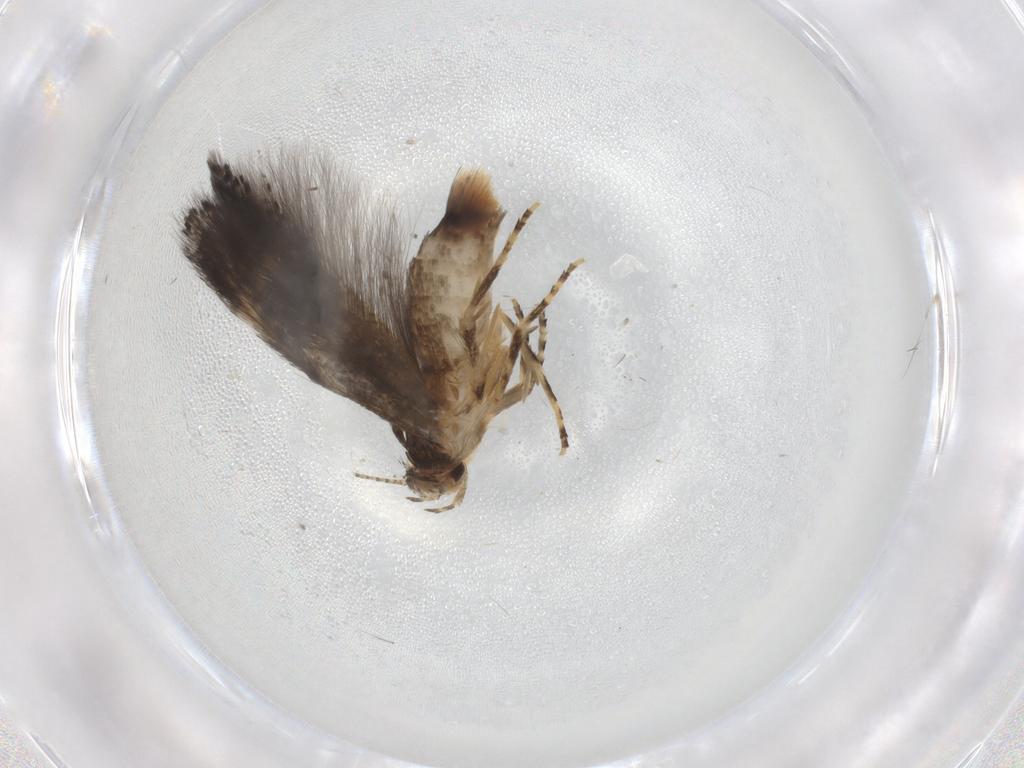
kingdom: Animalia
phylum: Arthropoda
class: Insecta
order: Lepidoptera
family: Elachistidae
